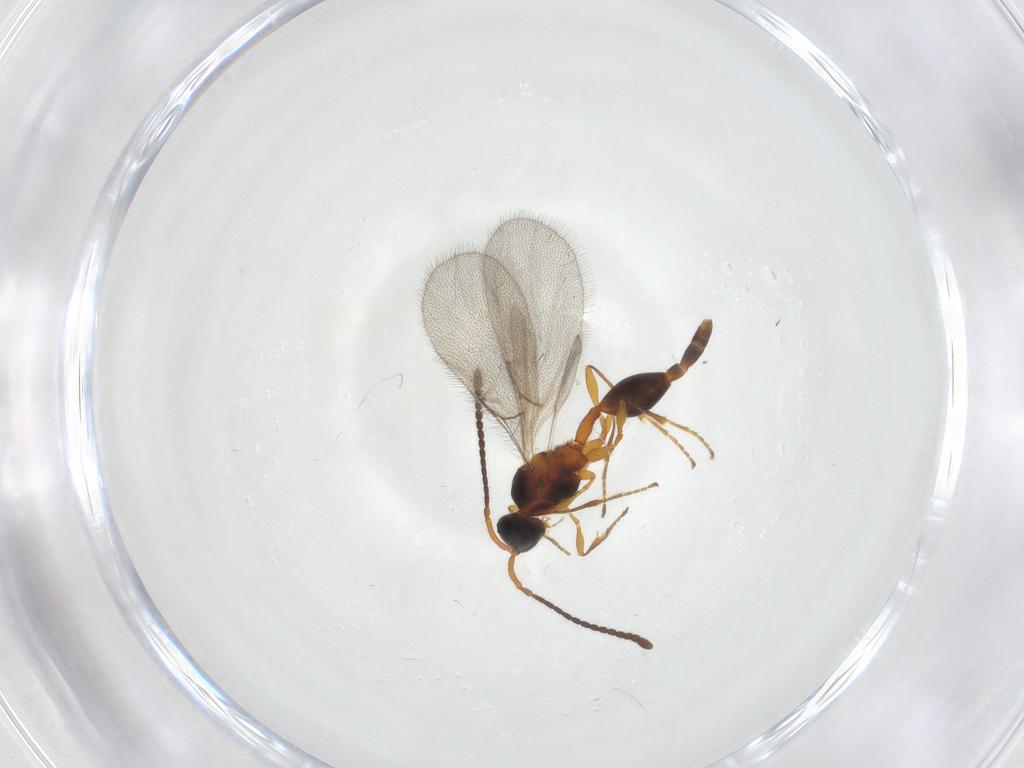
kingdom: Animalia
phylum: Arthropoda
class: Insecta
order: Hymenoptera
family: Diapriidae
